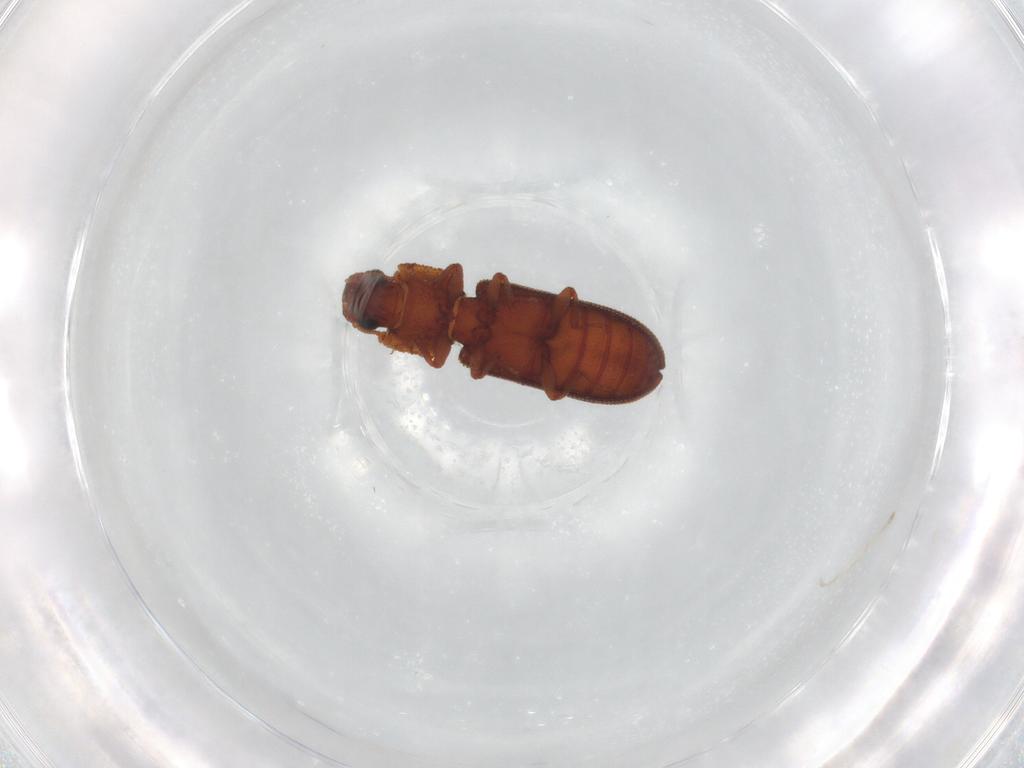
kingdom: Animalia
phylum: Arthropoda
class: Insecta
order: Coleoptera
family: Zopheridae
